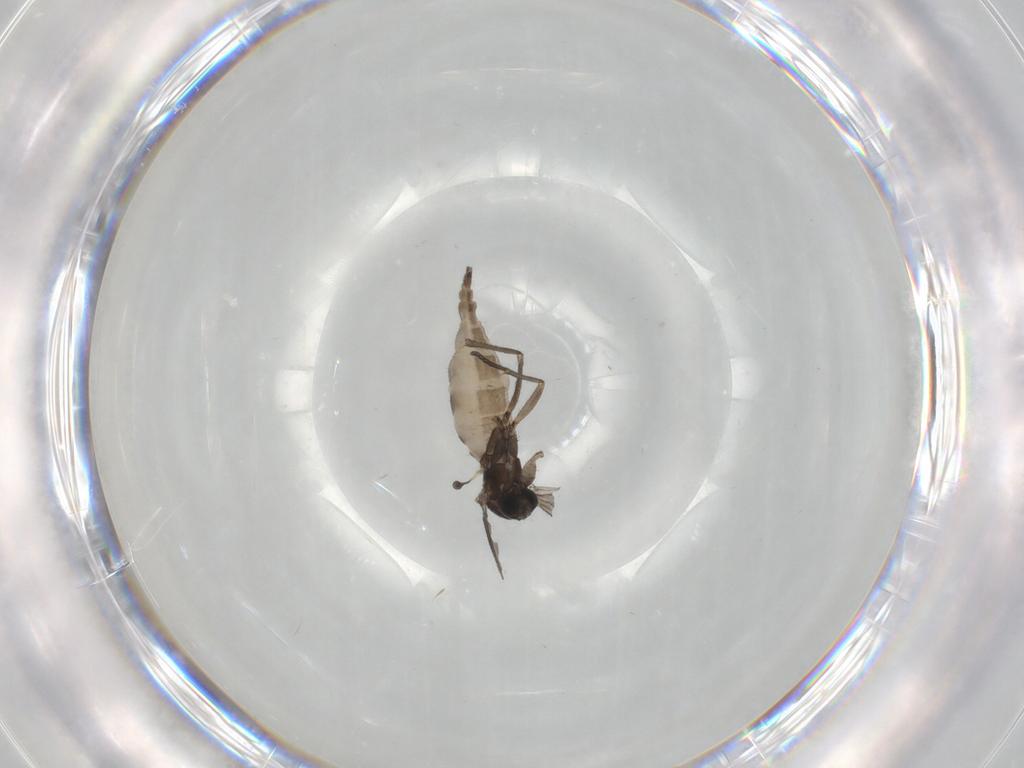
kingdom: Animalia
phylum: Arthropoda
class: Insecta
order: Diptera
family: Sciaridae
